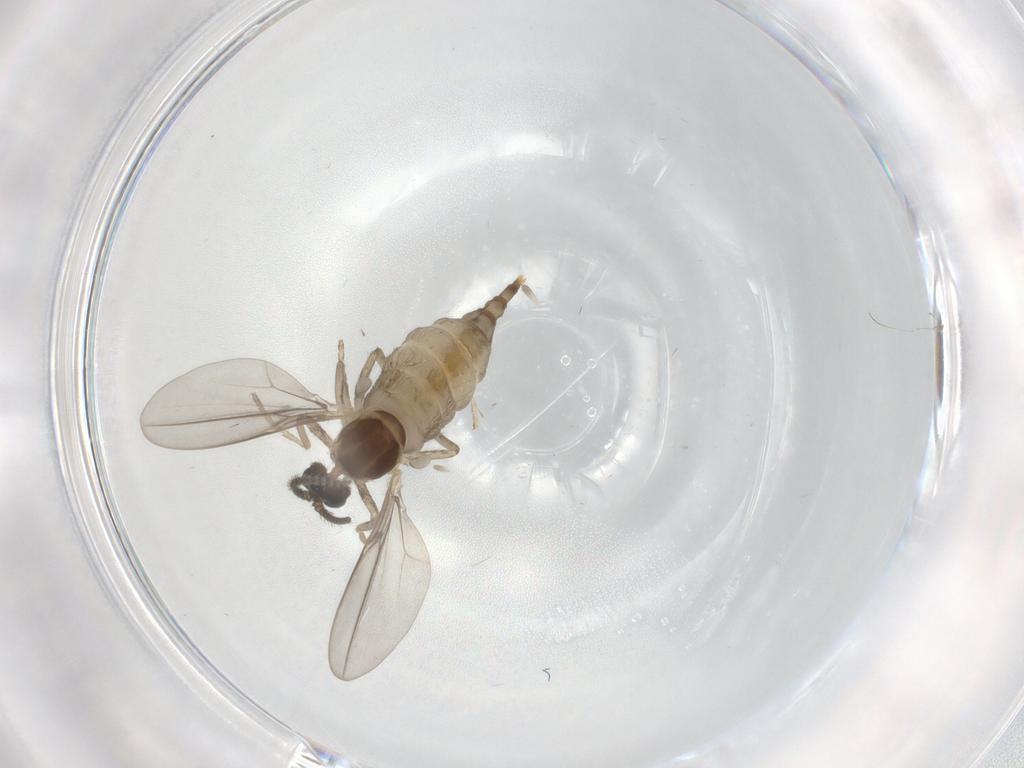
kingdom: Animalia
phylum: Arthropoda
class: Insecta
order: Diptera
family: Cecidomyiidae
